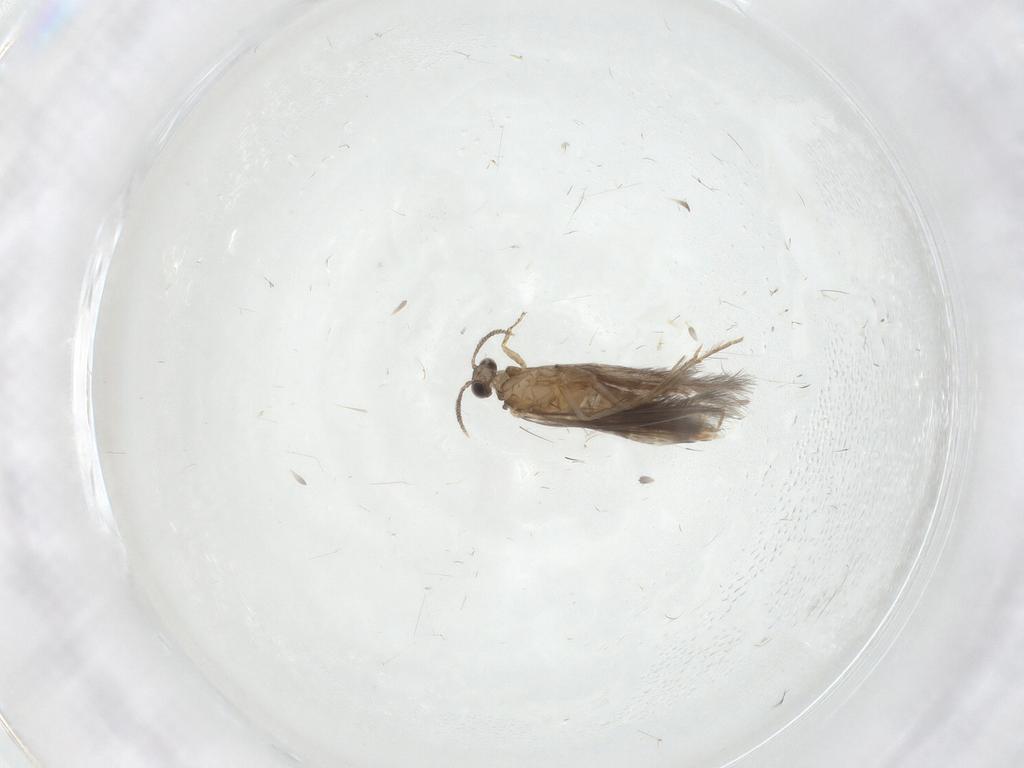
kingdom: Animalia
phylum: Arthropoda
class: Insecta
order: Trichoptera
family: Hydroptilidae
